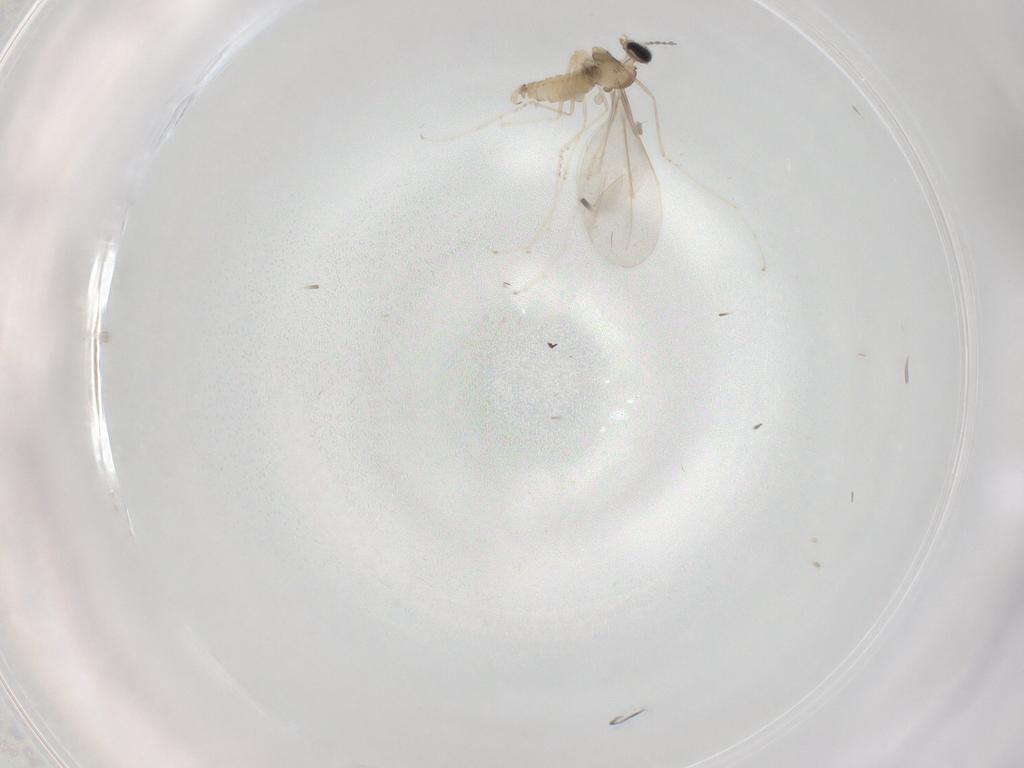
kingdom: Animalia
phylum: Arthropoda
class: Insecta
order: Diptera
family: Cecidomyiidae
